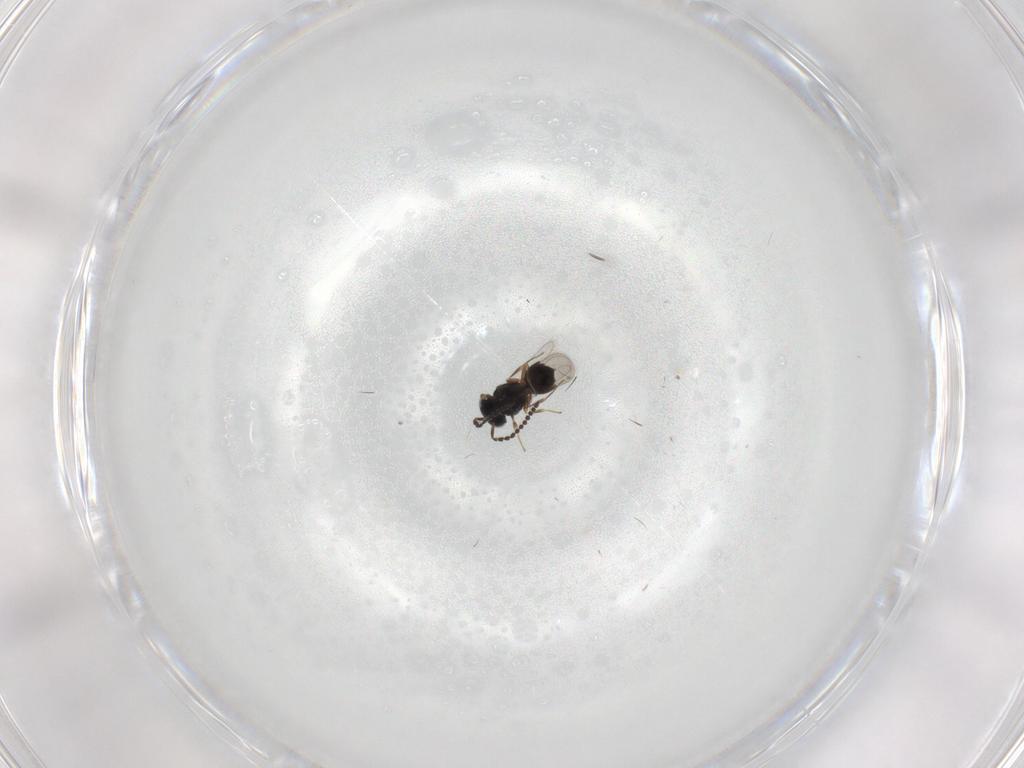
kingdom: Animalia
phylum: Arthropoda
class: Insecta
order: Hymenoptera
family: Scelionidae
